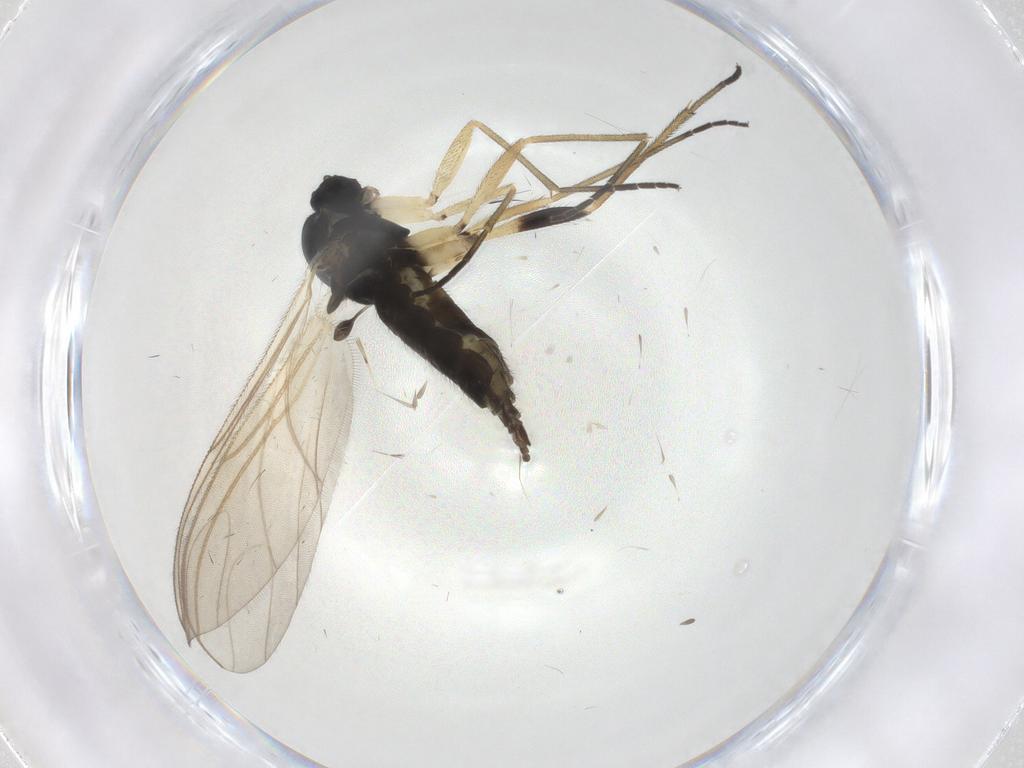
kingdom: Animalia
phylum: Arthropoda
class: Insecta
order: Diptera
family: Sciaridae
